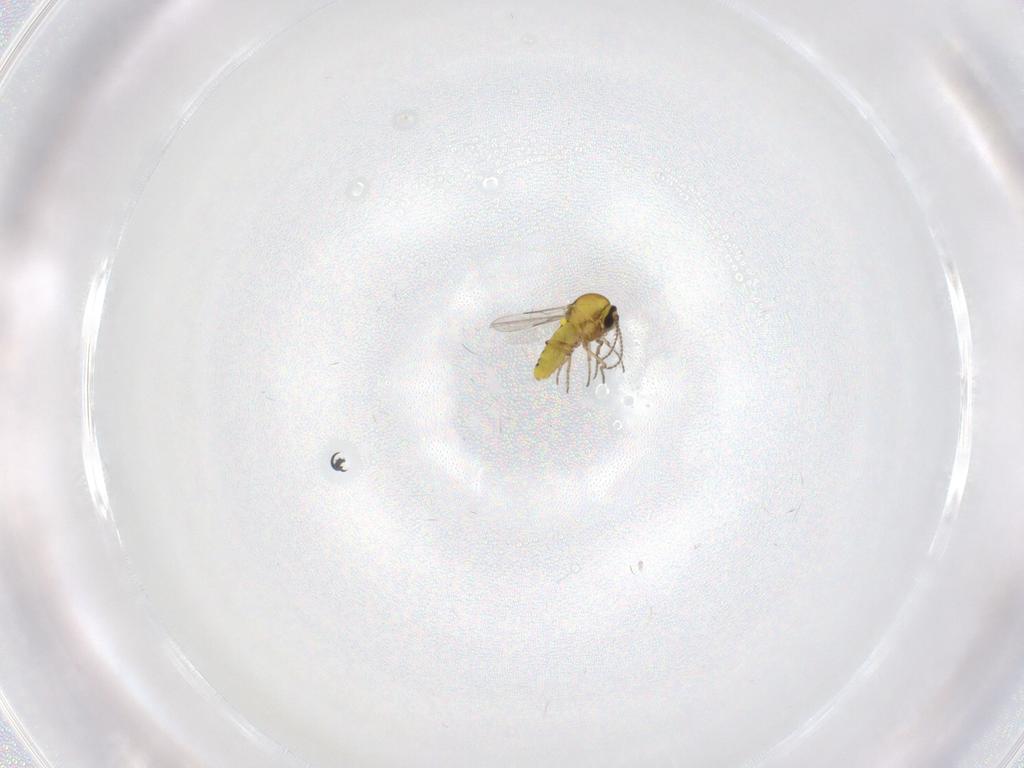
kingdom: Animalia
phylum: Arthropoda
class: Insecta
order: Diptera
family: Ceratopogonidae
